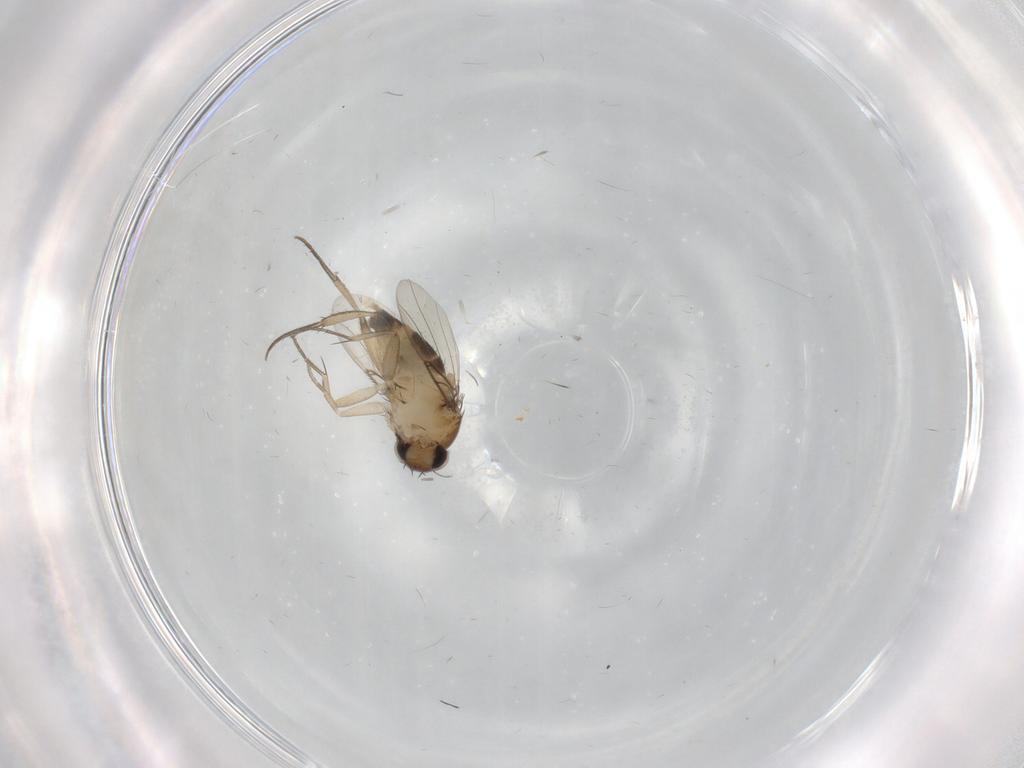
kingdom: Animalia
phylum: Arthropoda
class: Insecta
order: Diptera
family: Phoridae
